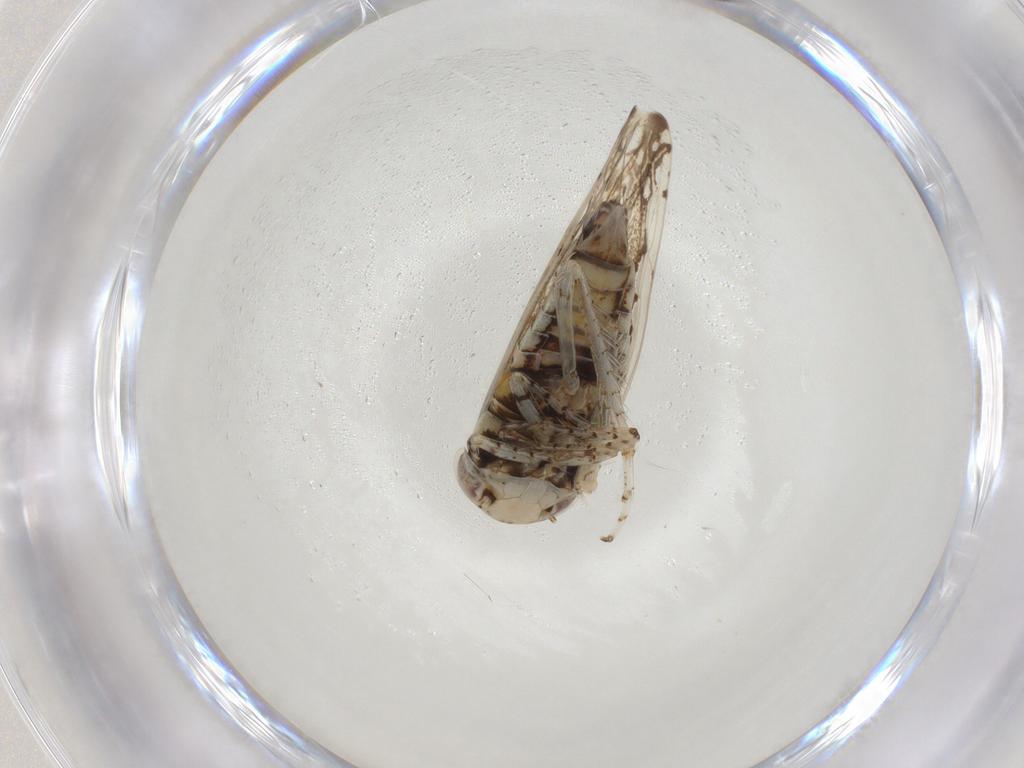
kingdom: Animalia
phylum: Arthropoda
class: Insecta
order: Hemiptera
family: Cicadellidae
